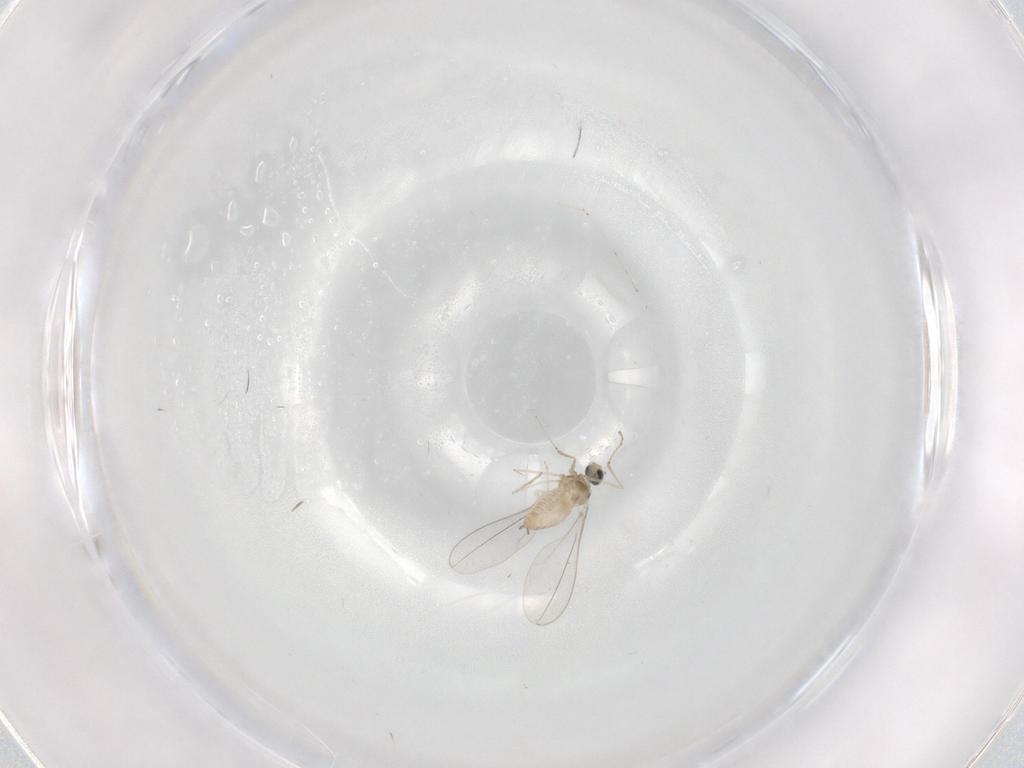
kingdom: Animalia
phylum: Arthropoda
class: Insecta
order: Diptera
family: Cecidomyiidae
